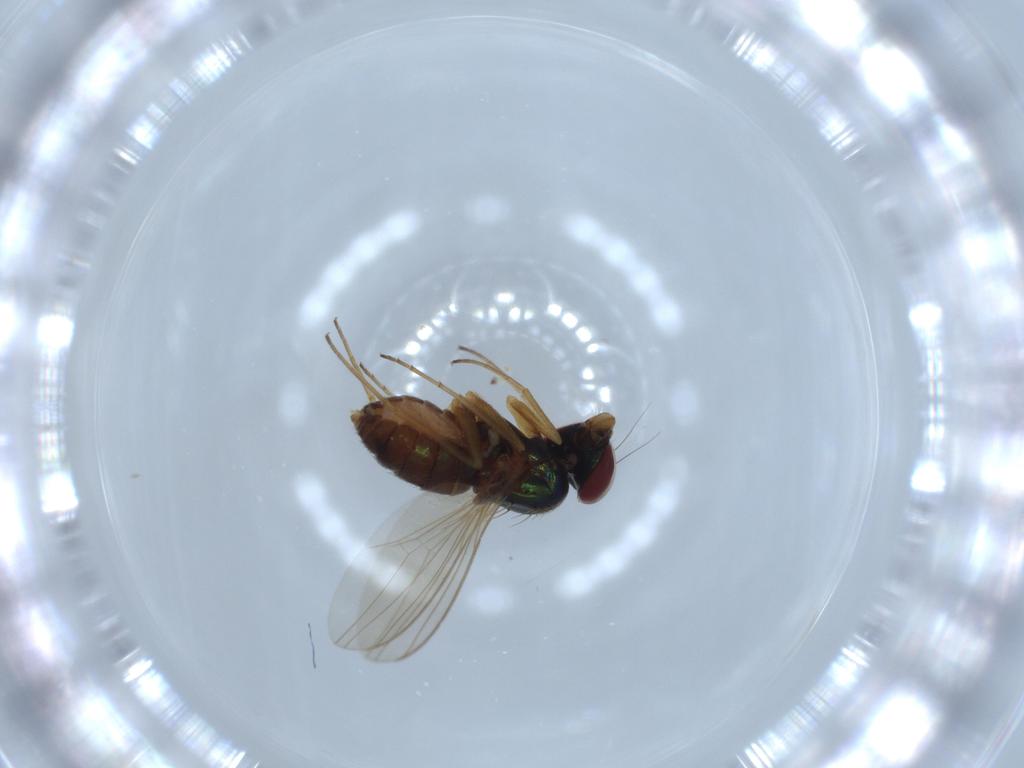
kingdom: Animalia
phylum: Arthropoda
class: Insecta
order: Diptera
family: Dolichopodidae
